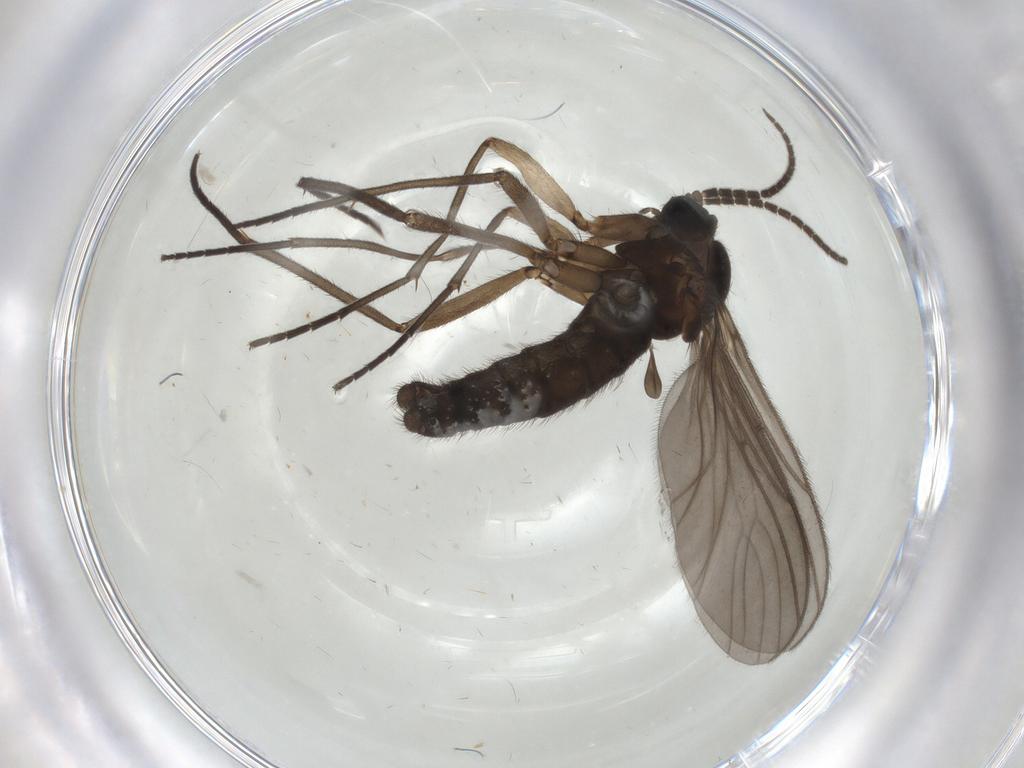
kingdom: Animalia
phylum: Arthropoda
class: Insecta
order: Diptera
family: Sciaridae
